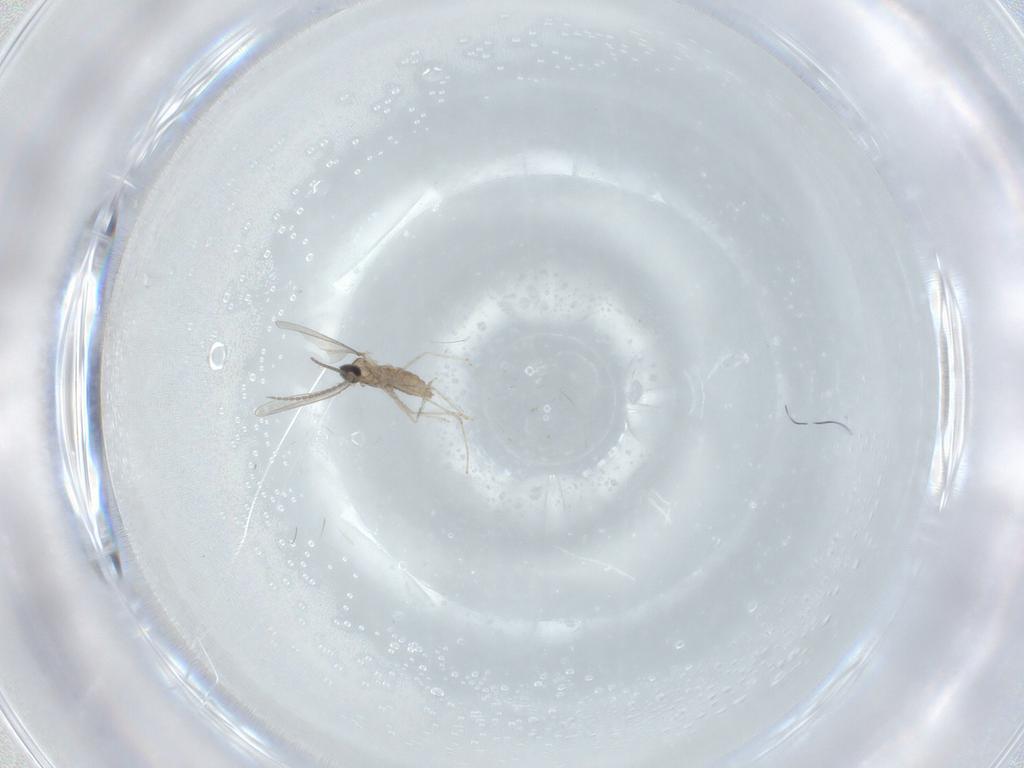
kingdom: Animalia
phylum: Arthropoda
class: Insecta
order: Diptera
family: Cecidomyiidae
